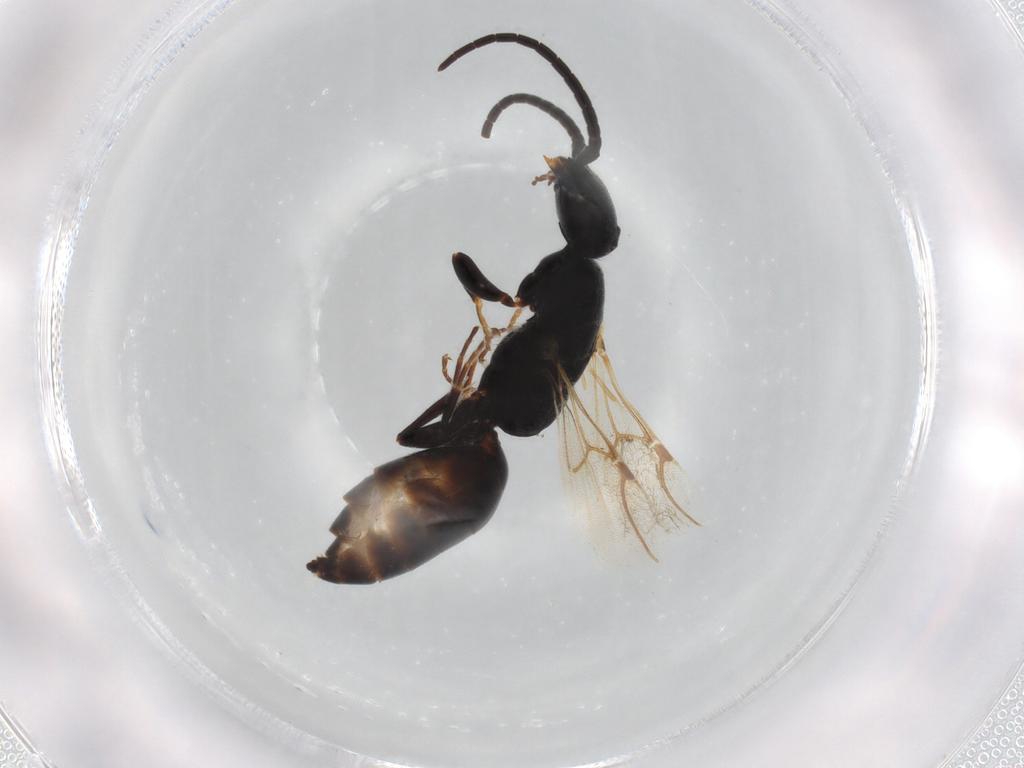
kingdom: Animalia
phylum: Arthropoda
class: Insecta
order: Hymenoptera
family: Bethylidae
